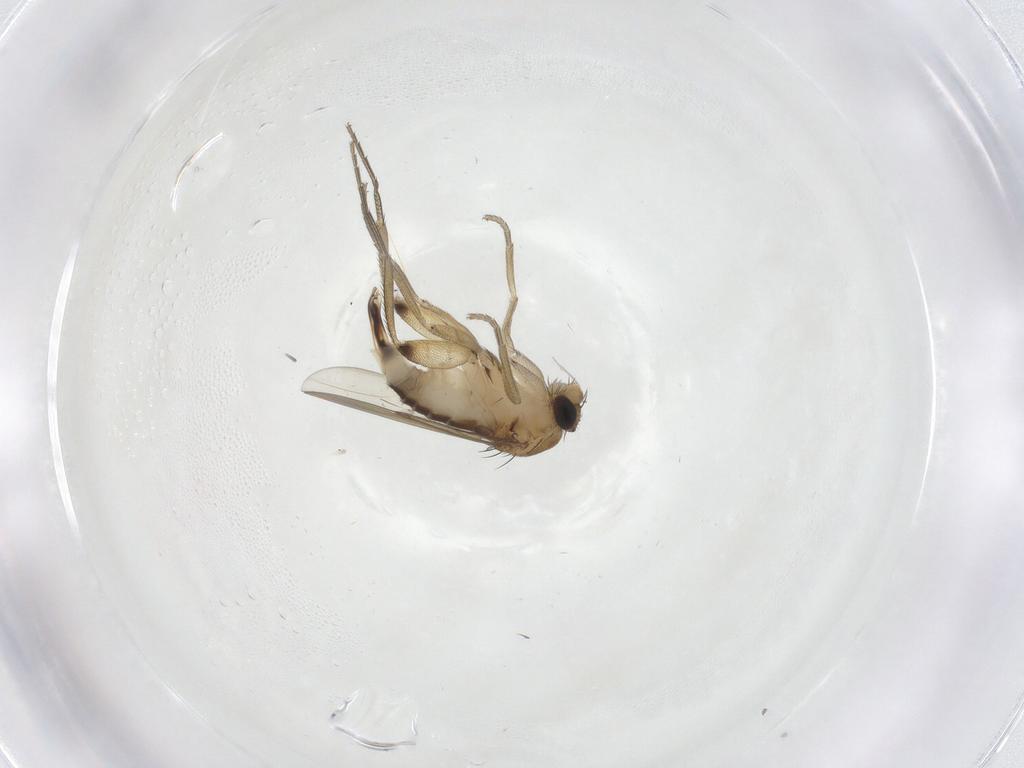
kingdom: Animalia
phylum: Arthropoda
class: Insecta
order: Diptera
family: Phoridae
